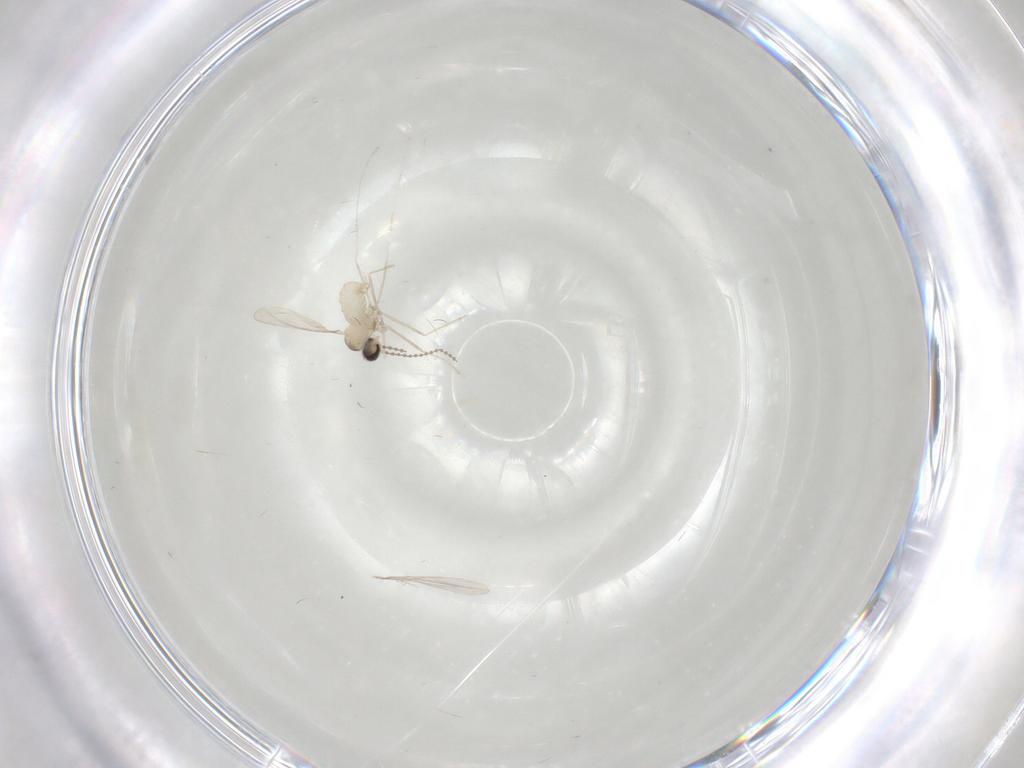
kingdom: Animalia
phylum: Arthropoda
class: Insecta
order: Diptera
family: Cecidomyiidae
